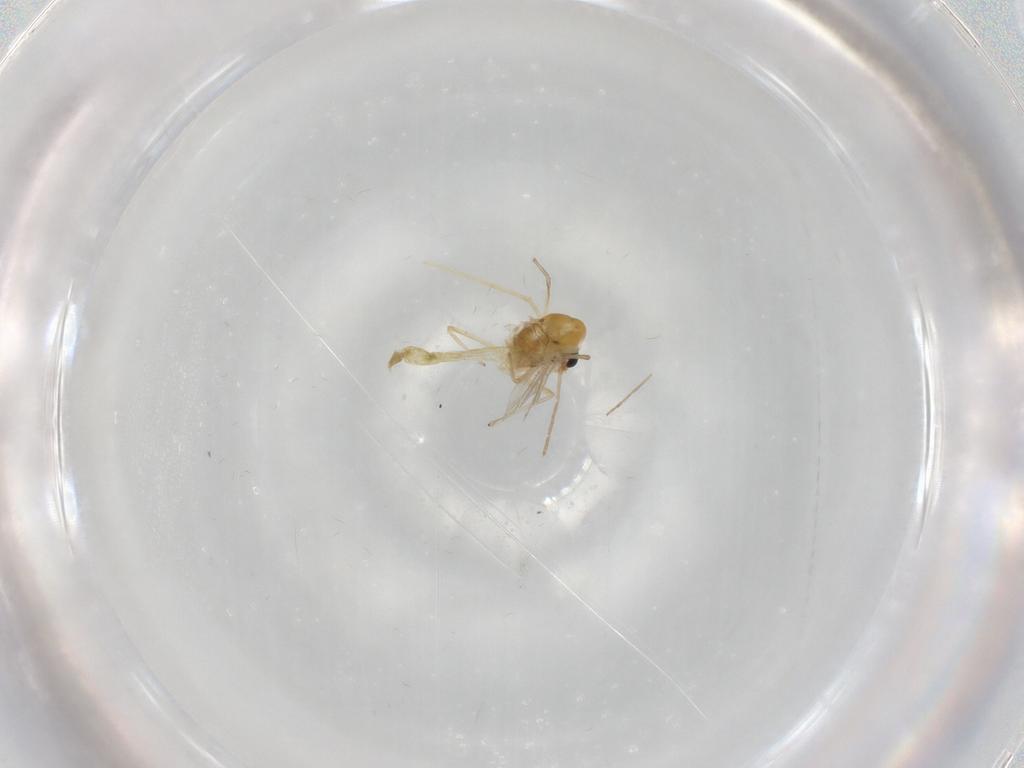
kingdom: Animalia
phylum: Arthropoda
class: Insecta
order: Diptera
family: Chironomidae
